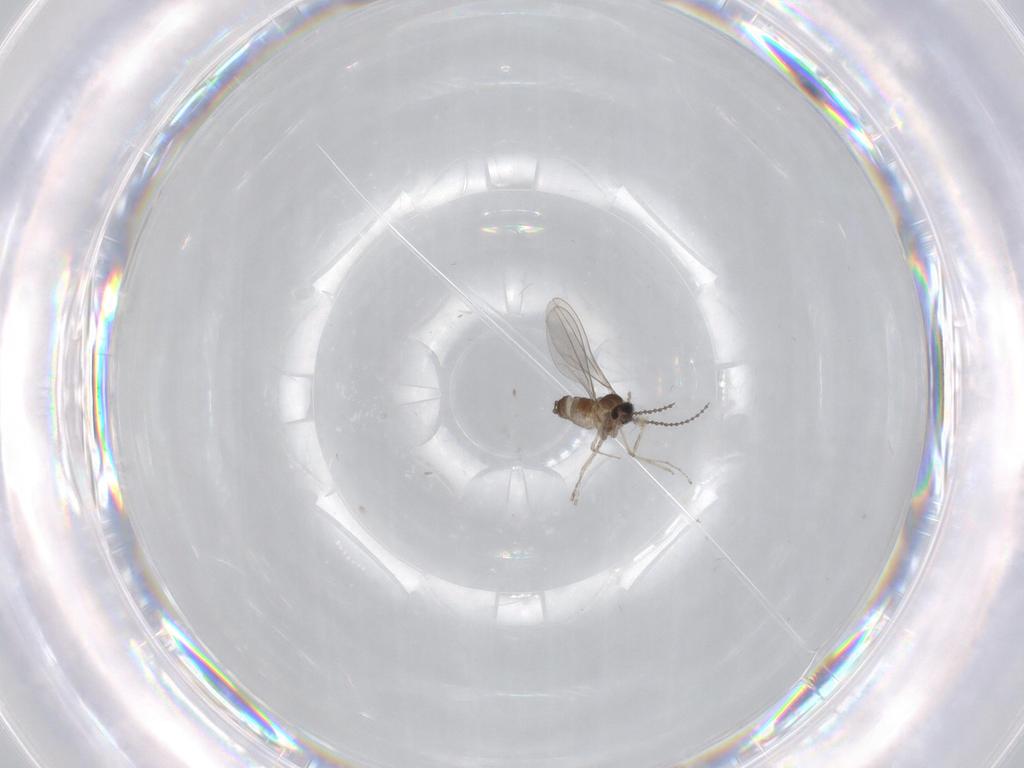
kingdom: Animalia
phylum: Arthropoda
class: Insecta
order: Diptera
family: Cecidomyiidae
